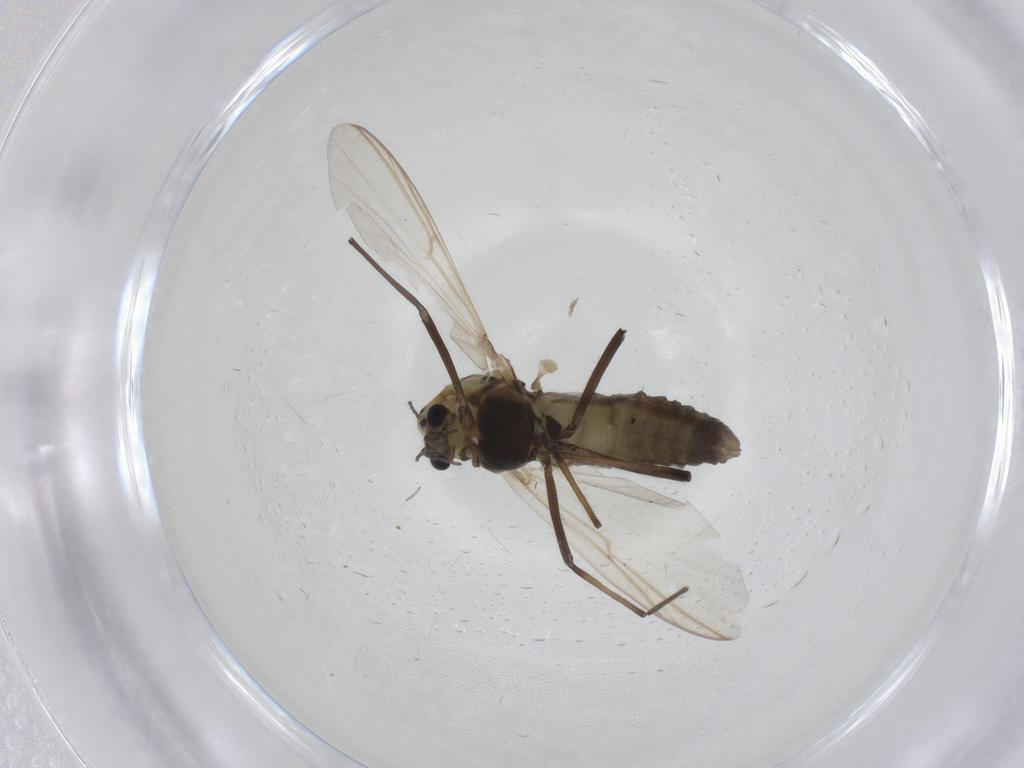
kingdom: Animalia
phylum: Arthropoda
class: Insecta
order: Diptera
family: Chironomidae
